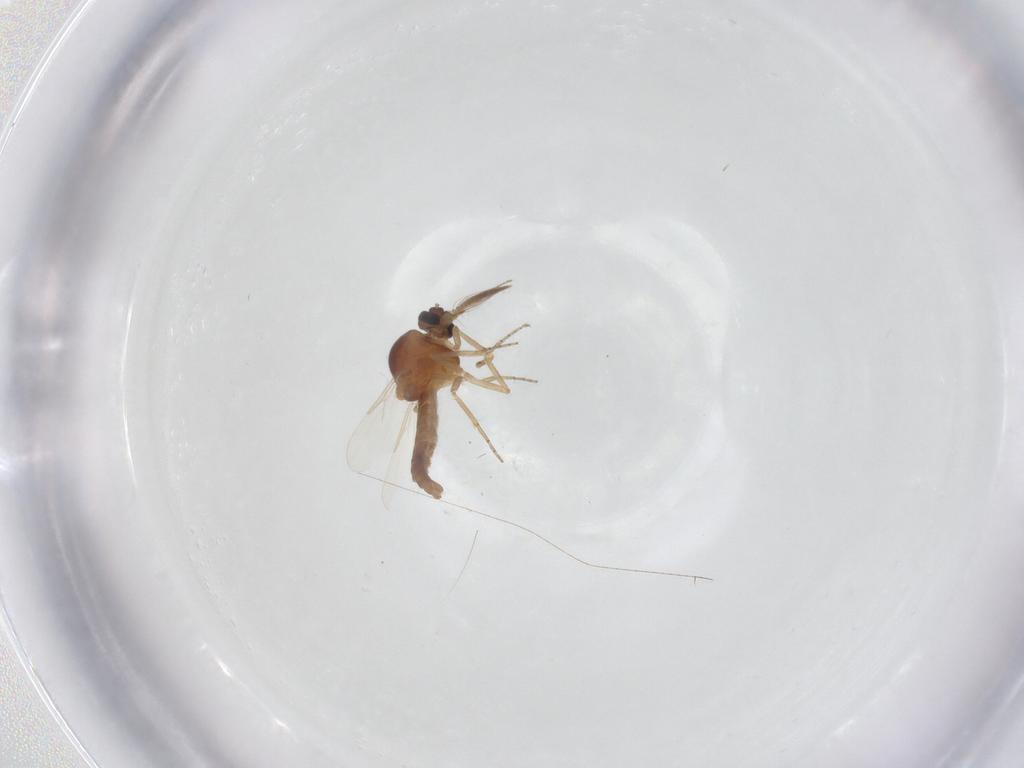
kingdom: Animalia
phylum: Arthropoda
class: Insecta
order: Diptera
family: Ceratopogonidae
